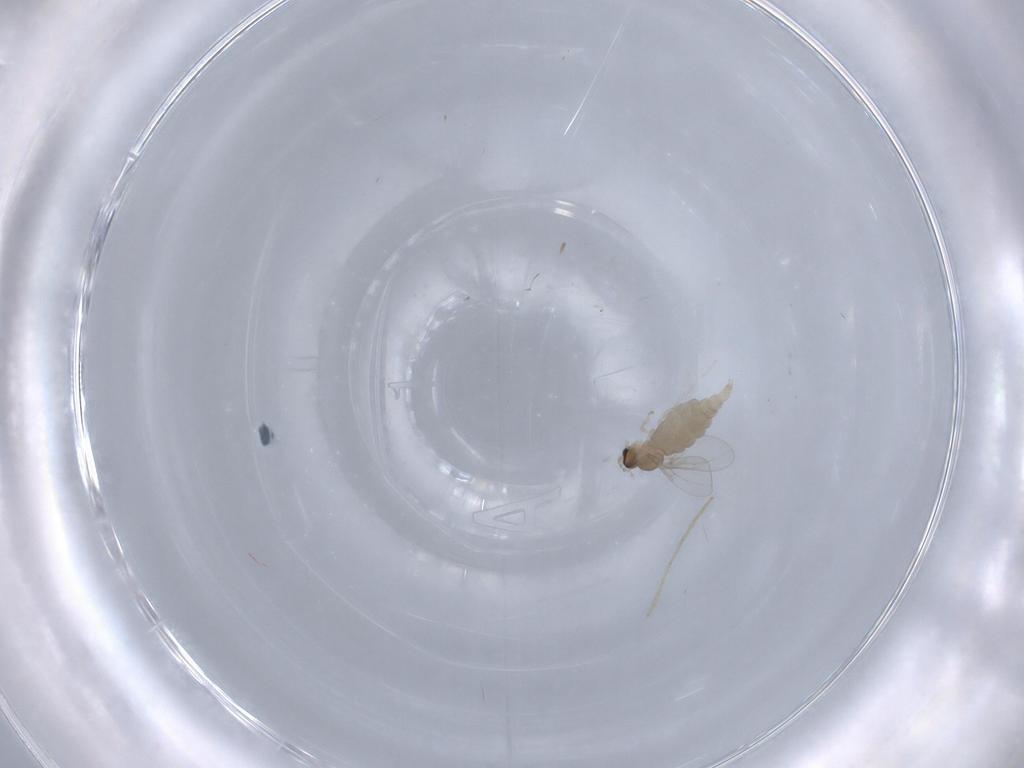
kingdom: Animalia
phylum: Arthropoda
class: Insecta
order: Diptera
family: Cecidomyiidae
